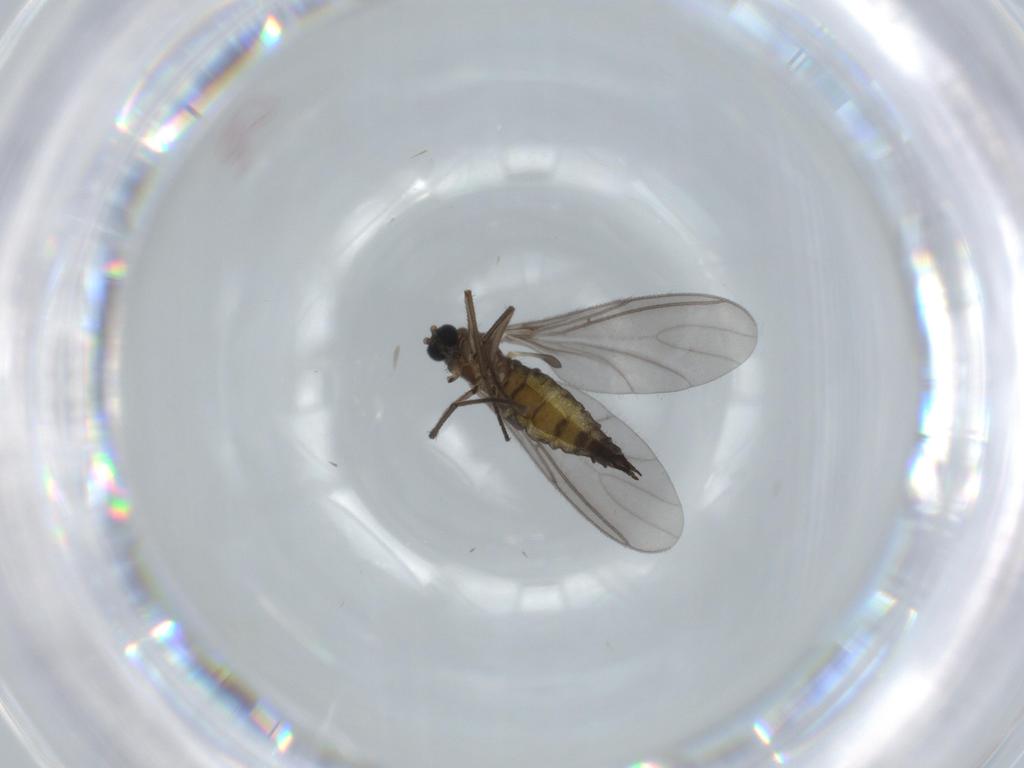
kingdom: Animalia
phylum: Arthropoda
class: Insecta
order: Diptera
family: Sciaridae
